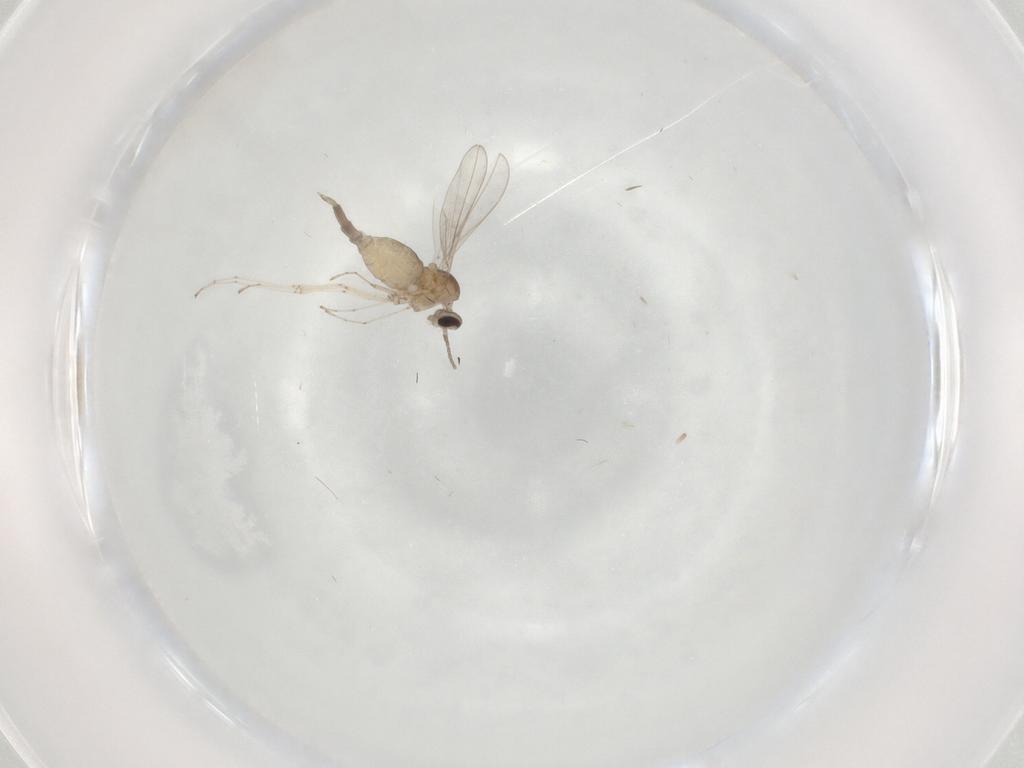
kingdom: Animalia
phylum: Arthropoda
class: Insecta
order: Diptera
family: Cecidomyiidae
